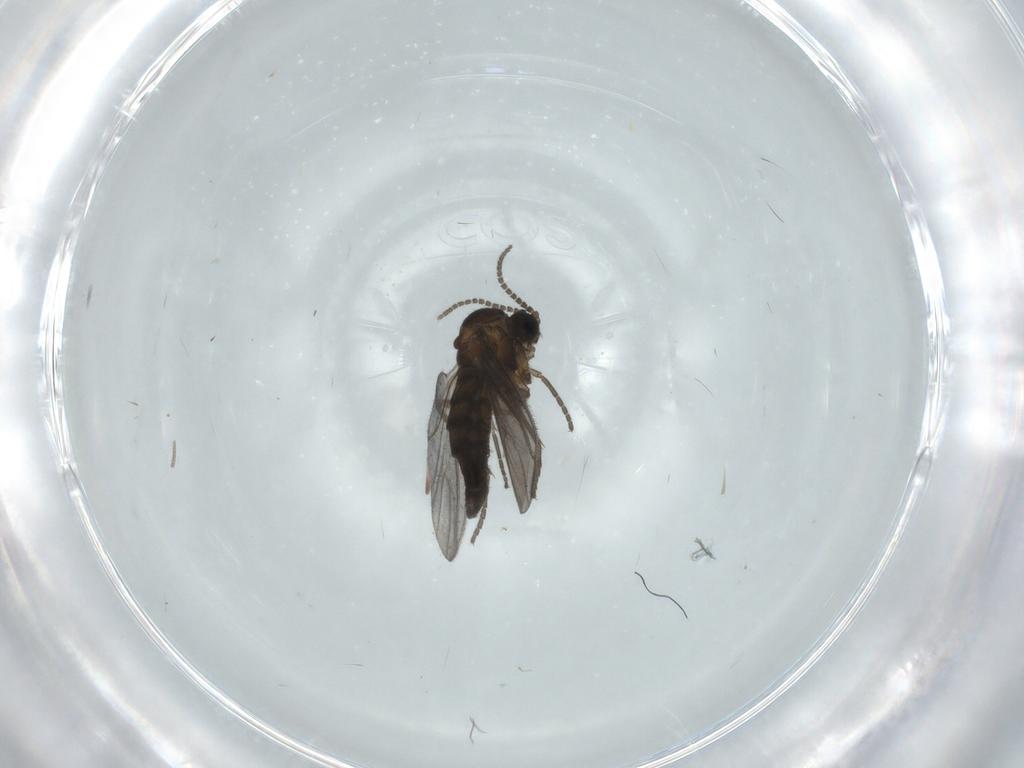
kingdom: Animalia
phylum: Arthropoda
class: Insecta
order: Diptera
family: Sciaridae
